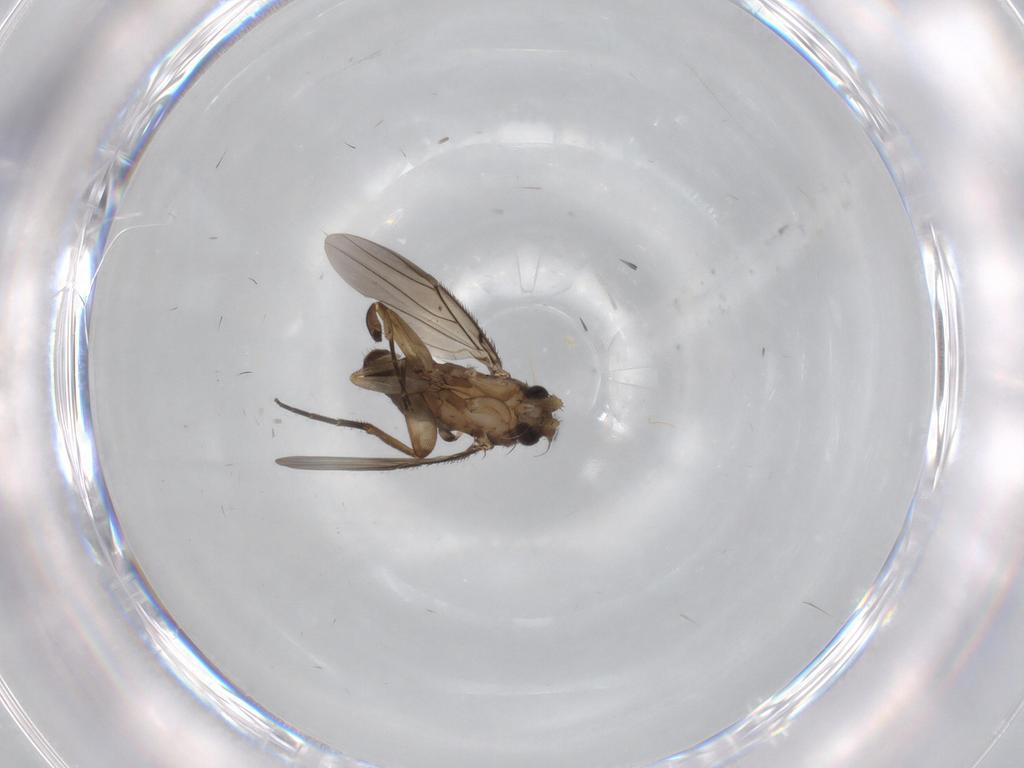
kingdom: Animalia
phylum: Arthropoda
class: Insecta
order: Diptera
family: Phoridae
